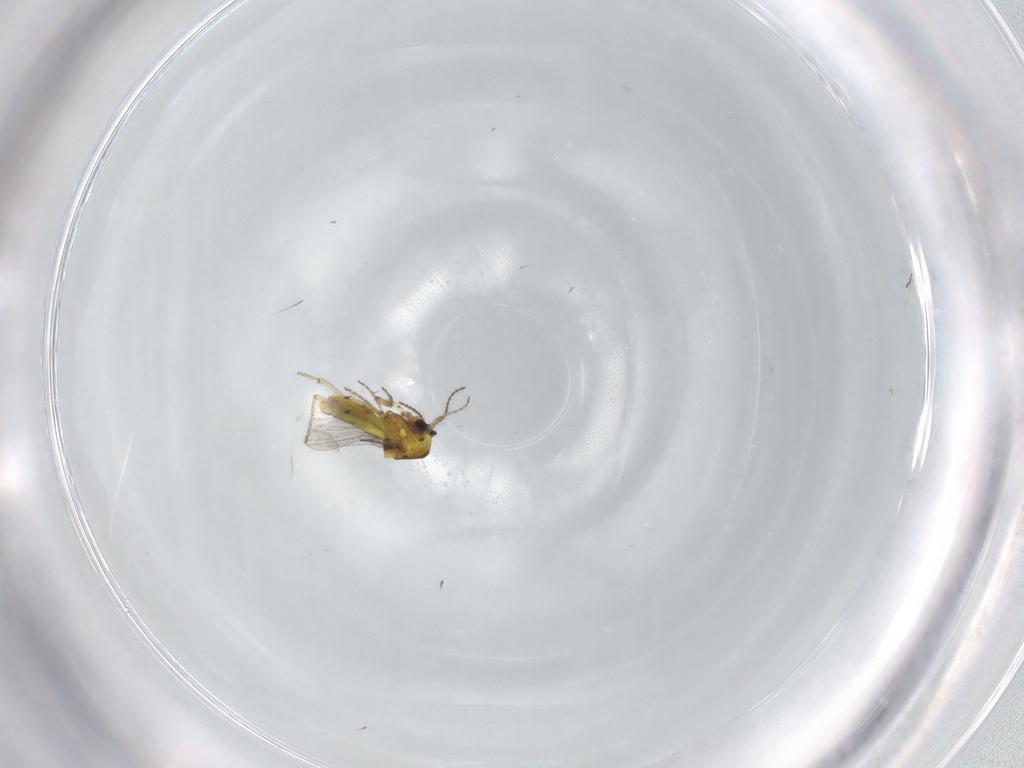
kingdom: Animalia
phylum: Arthropoda
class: Insecta
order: Diptera
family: Ceratopogonidae
